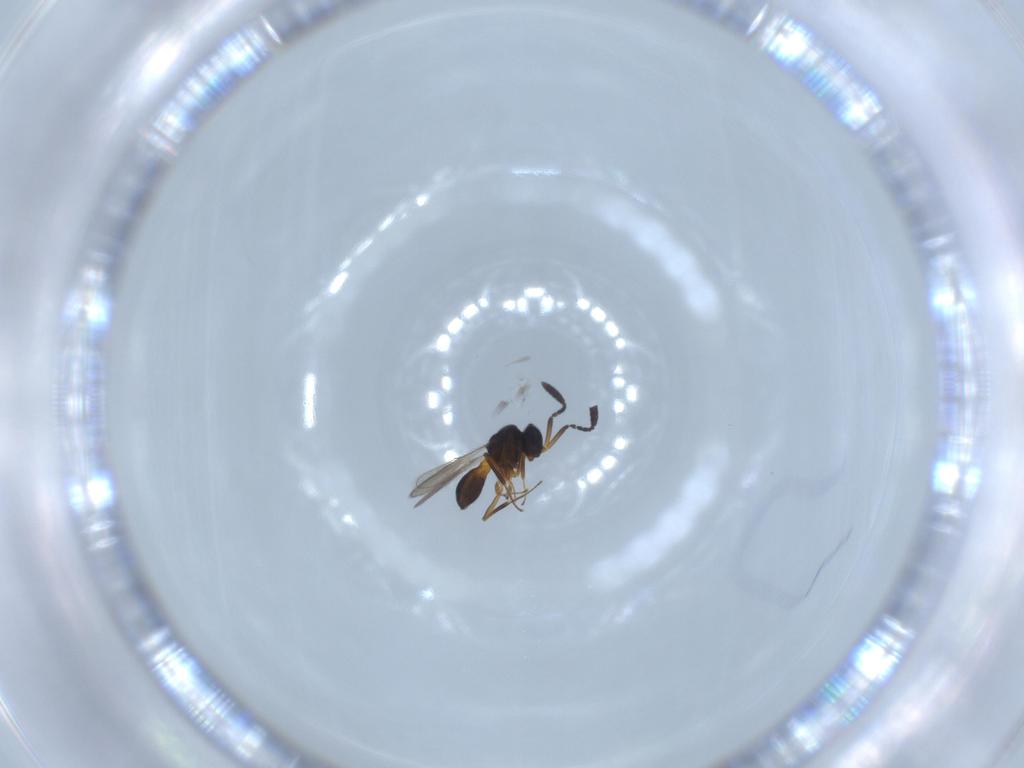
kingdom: Animalia
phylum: Arthropoda
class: Insecta
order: Hymenoptera
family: Scelionidae
